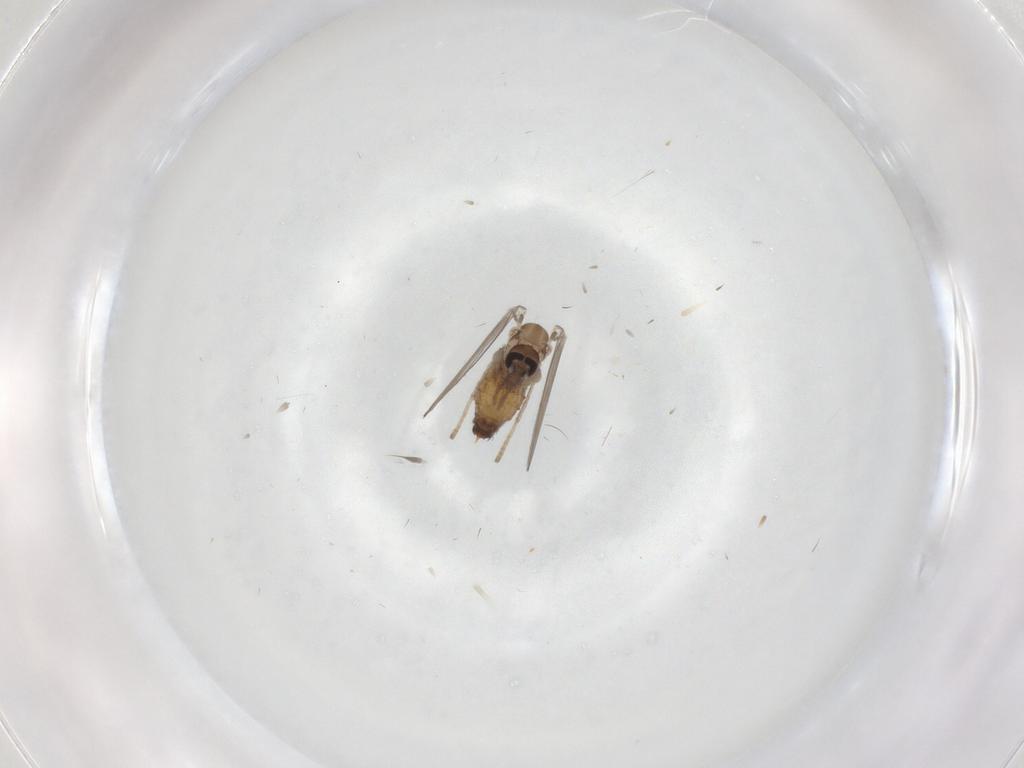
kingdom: Animalia
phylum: Arthropoda
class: Insecta
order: Diptera
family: Psychodidae
